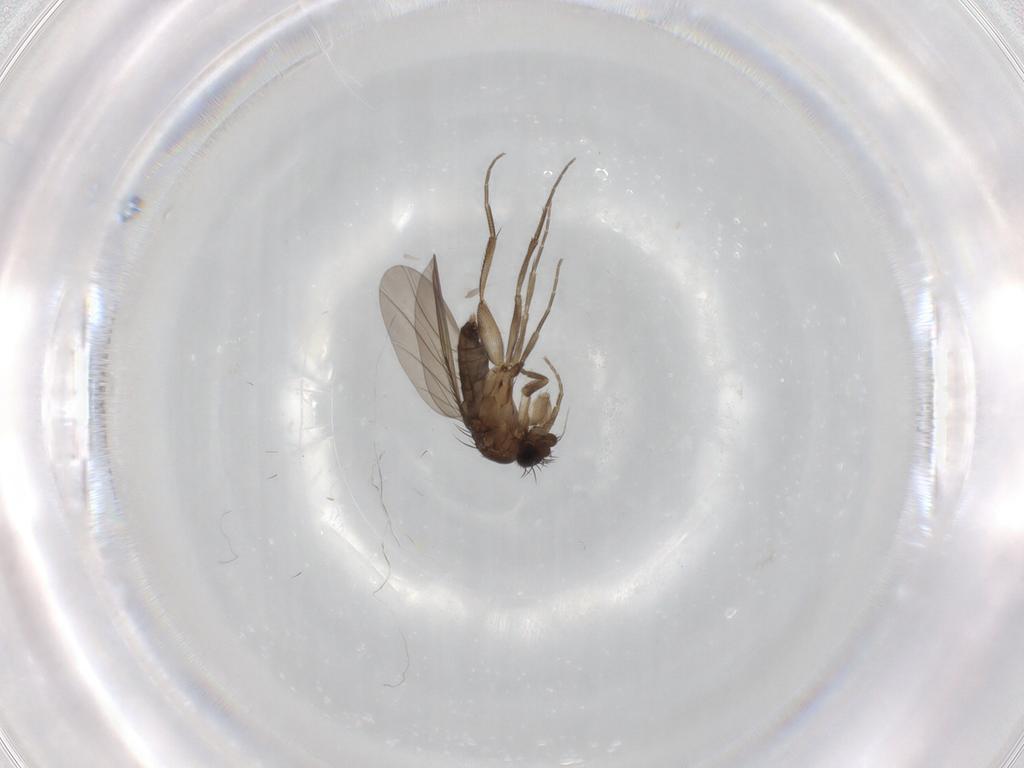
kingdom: Animalia
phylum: Arthropoda
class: Insecta
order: Diptera
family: Phoridae
